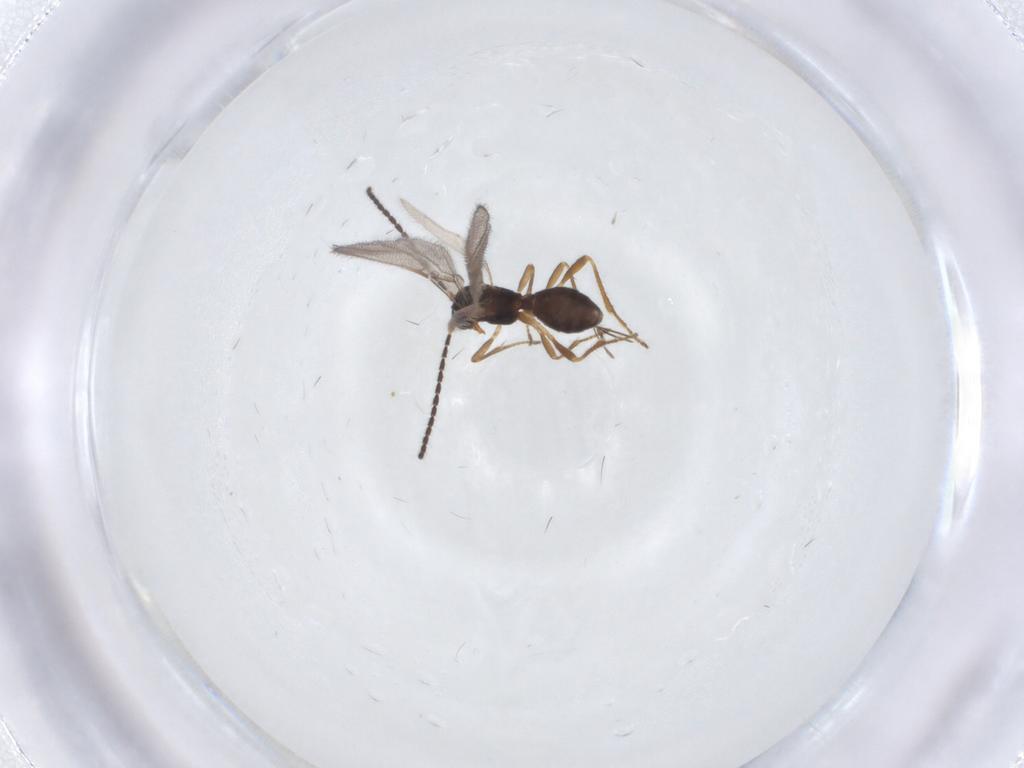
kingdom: Animalia
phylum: Arthropoda
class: Insecta
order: Hymenoptera
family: Braconidae
